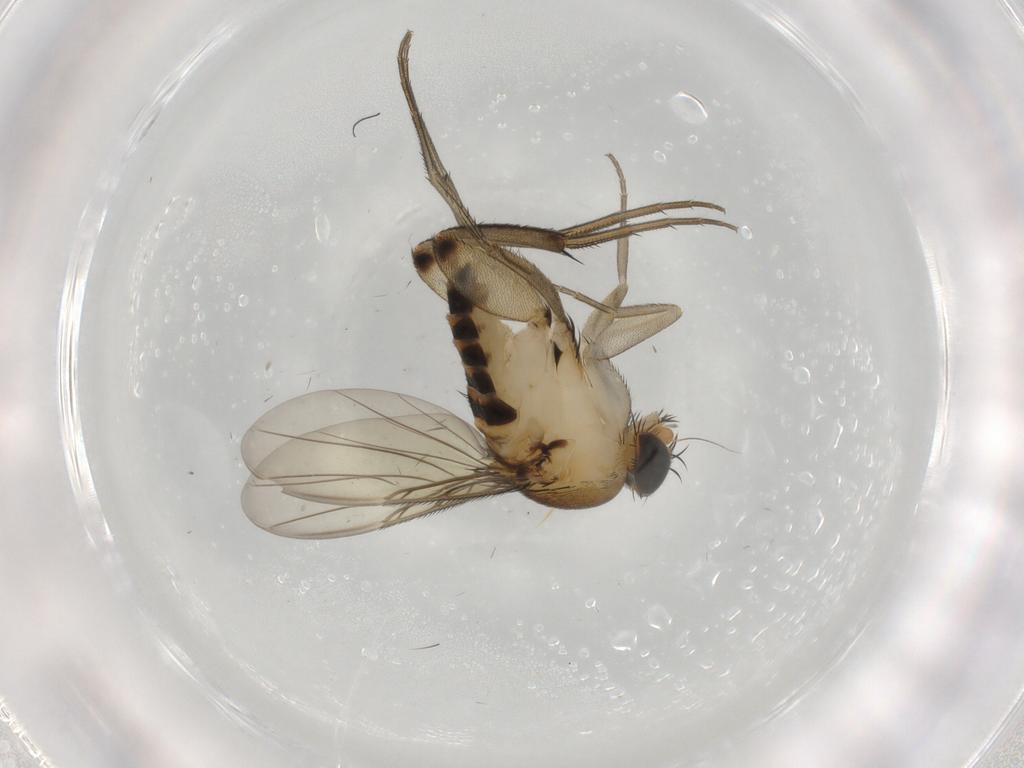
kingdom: Animalia
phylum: Arthropoda
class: Insecta
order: Diptera
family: Phoridae
